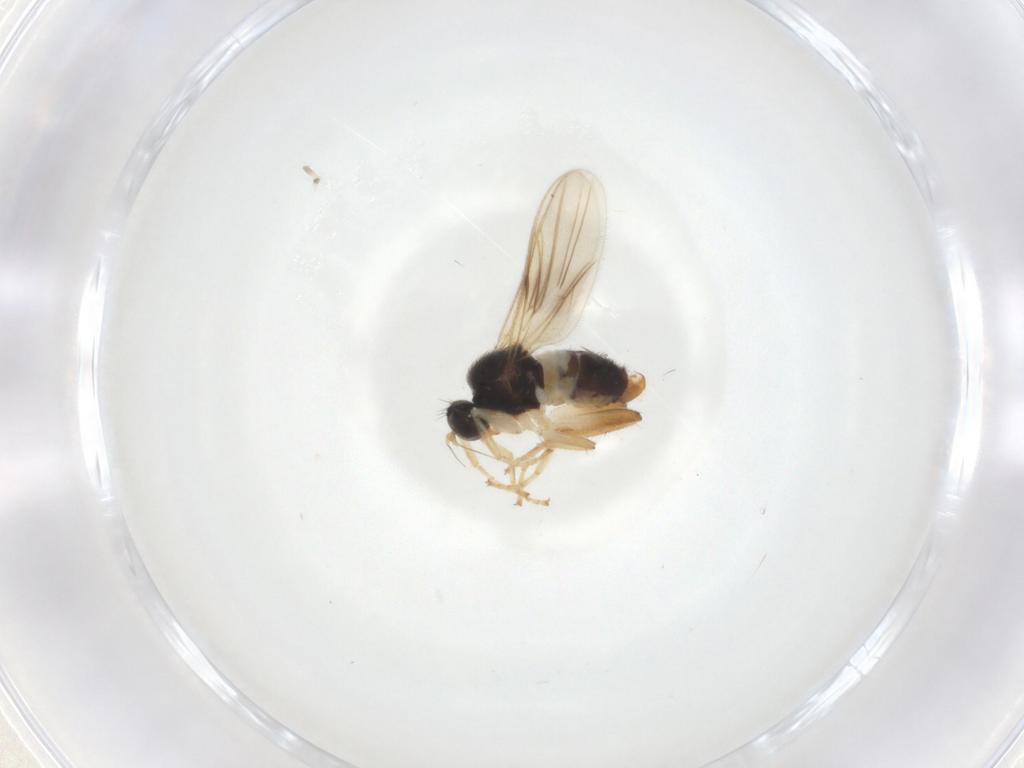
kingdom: Animalia
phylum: Arthropoda
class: Insecta
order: Diptera
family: Hybotidae
